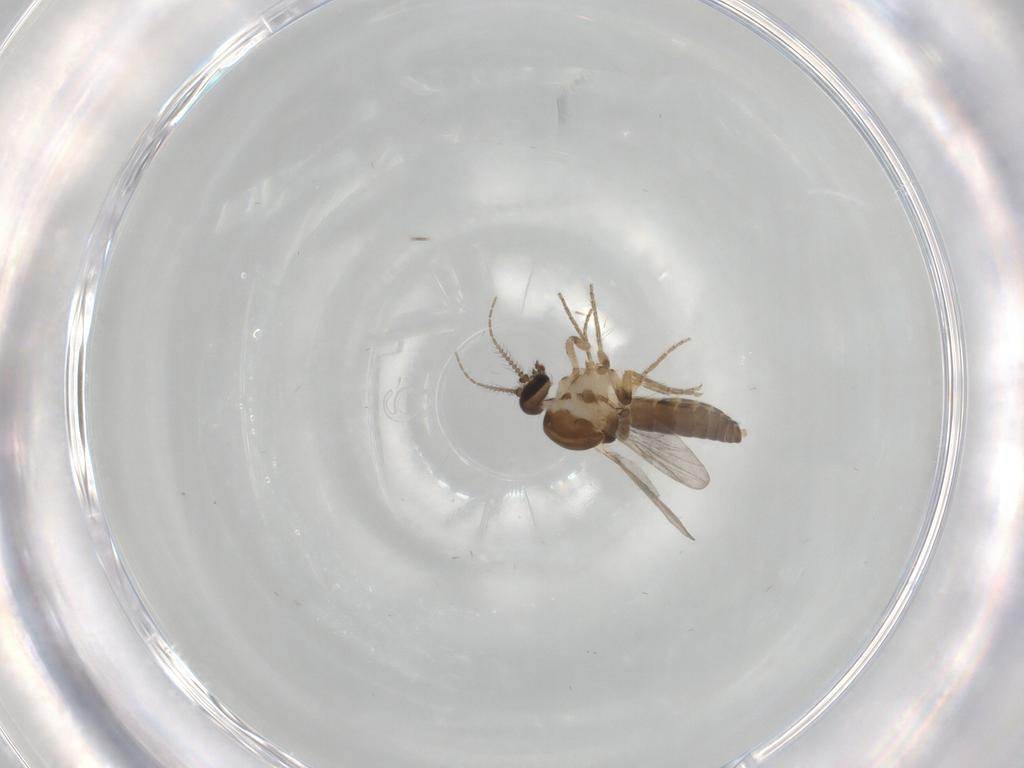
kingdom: Animalia
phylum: Arthropoda
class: Insecta
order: Diptera
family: Ceratopogonidae
